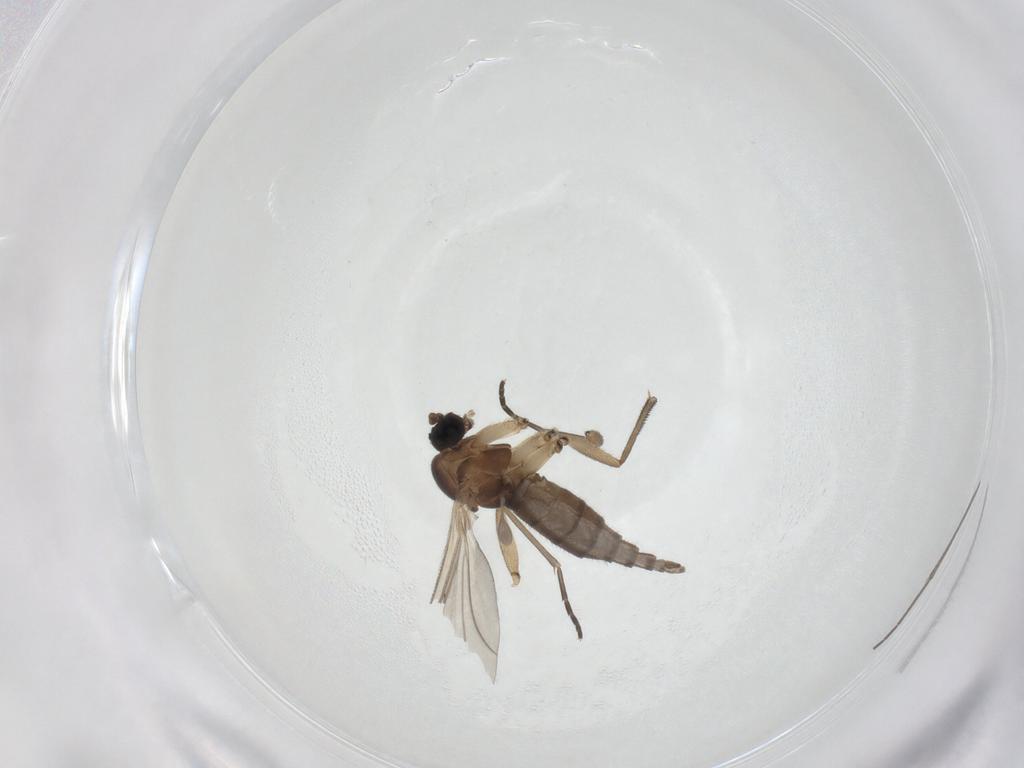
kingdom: Animalia
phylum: Arthropoda
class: Insecta
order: Diptera
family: Sciaridae
